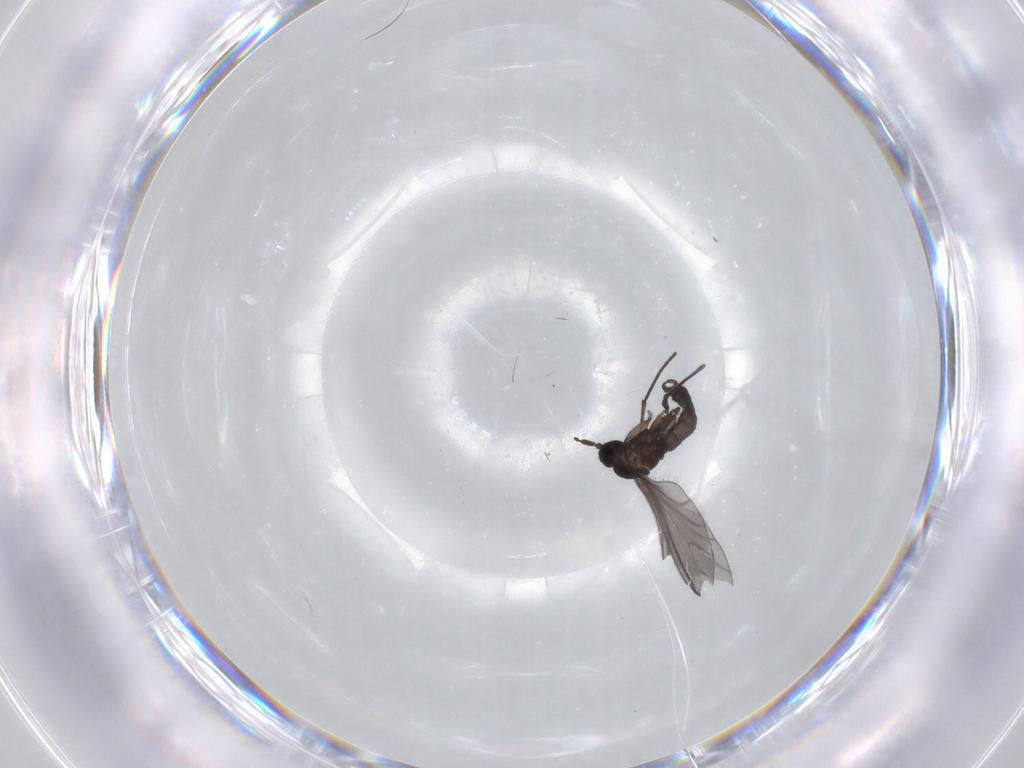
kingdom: Animalia
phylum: Arthropoda
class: Insecta
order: Diptera
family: Sciaridae
